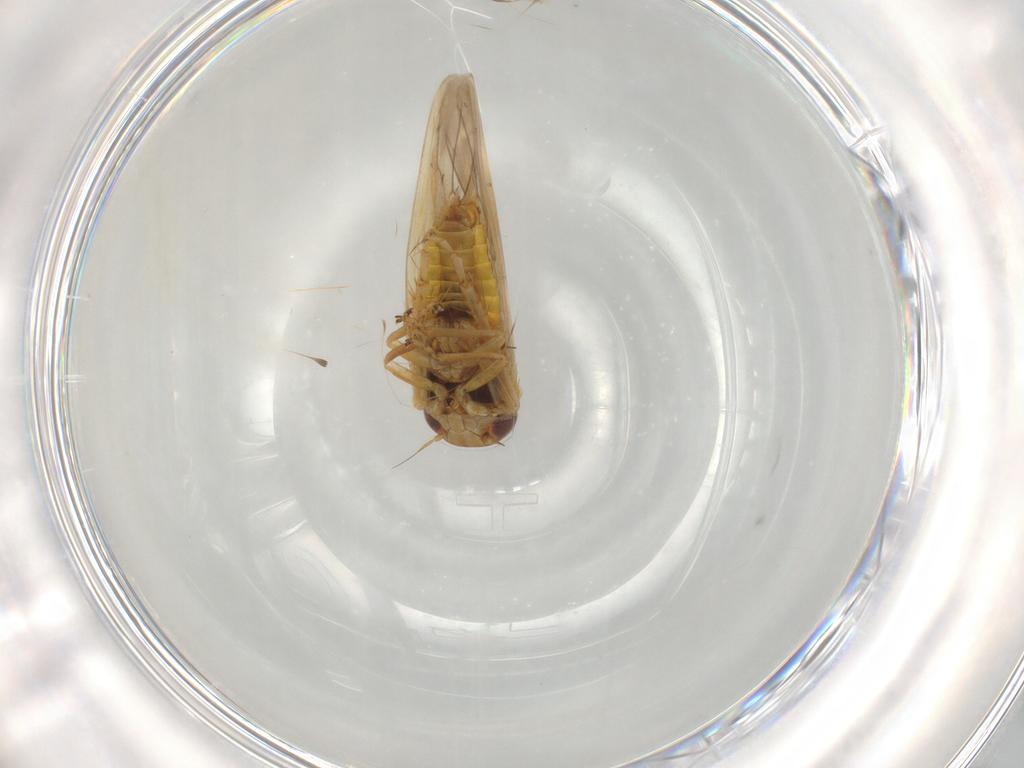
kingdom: Animalia
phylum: Arthropoda
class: Insecta
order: Hemiptera
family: Cicadellidae
